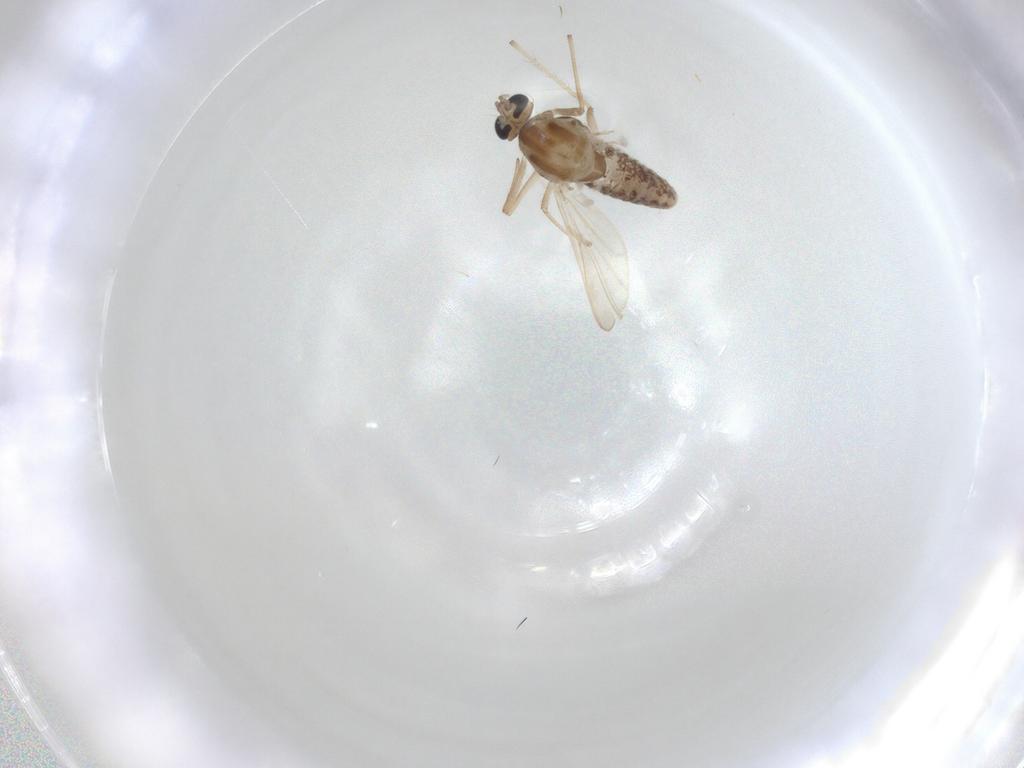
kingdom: Animalia
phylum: Arthropoda
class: Insecta
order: Diptera
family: Chironomidae
